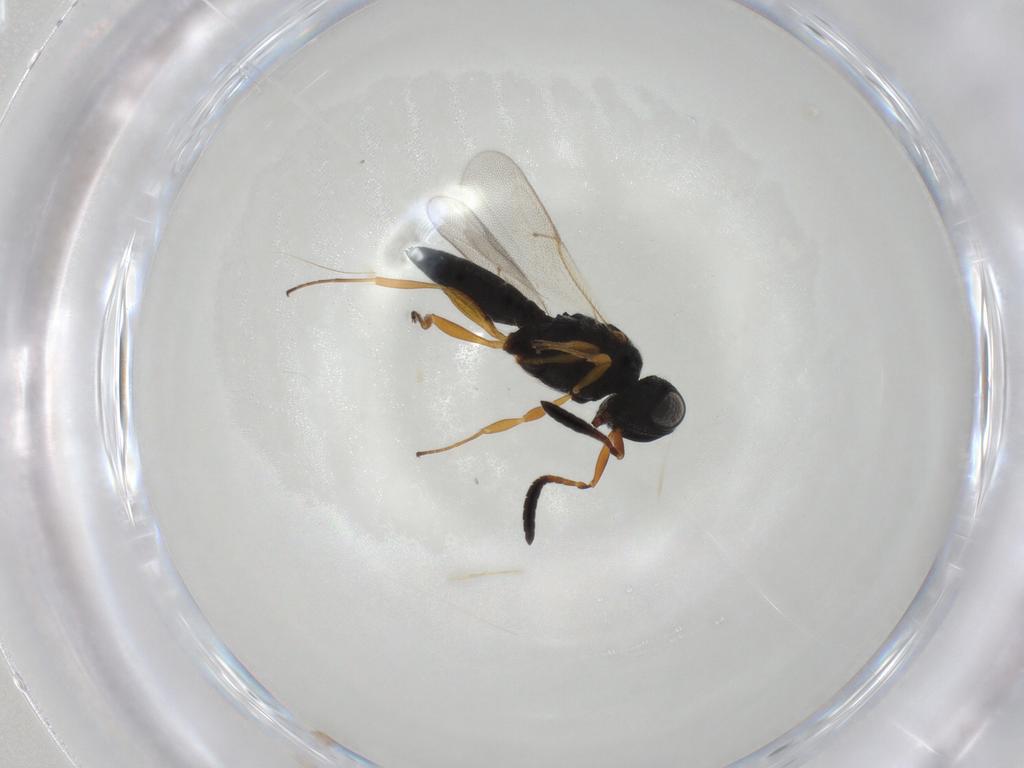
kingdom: Animalia
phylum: Arthropoda
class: Insecta
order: Hymenoptera
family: Scelionidae
